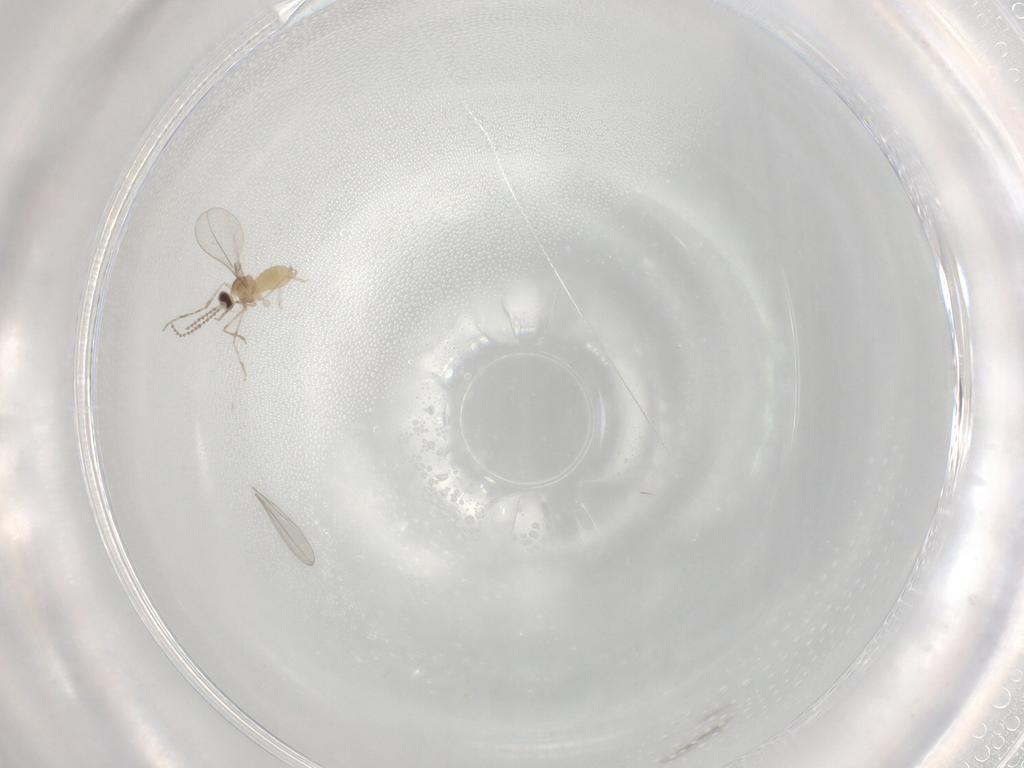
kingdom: Animalia
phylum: Arthropoda
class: Insecta
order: Diptera
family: Cecidomyiidae
